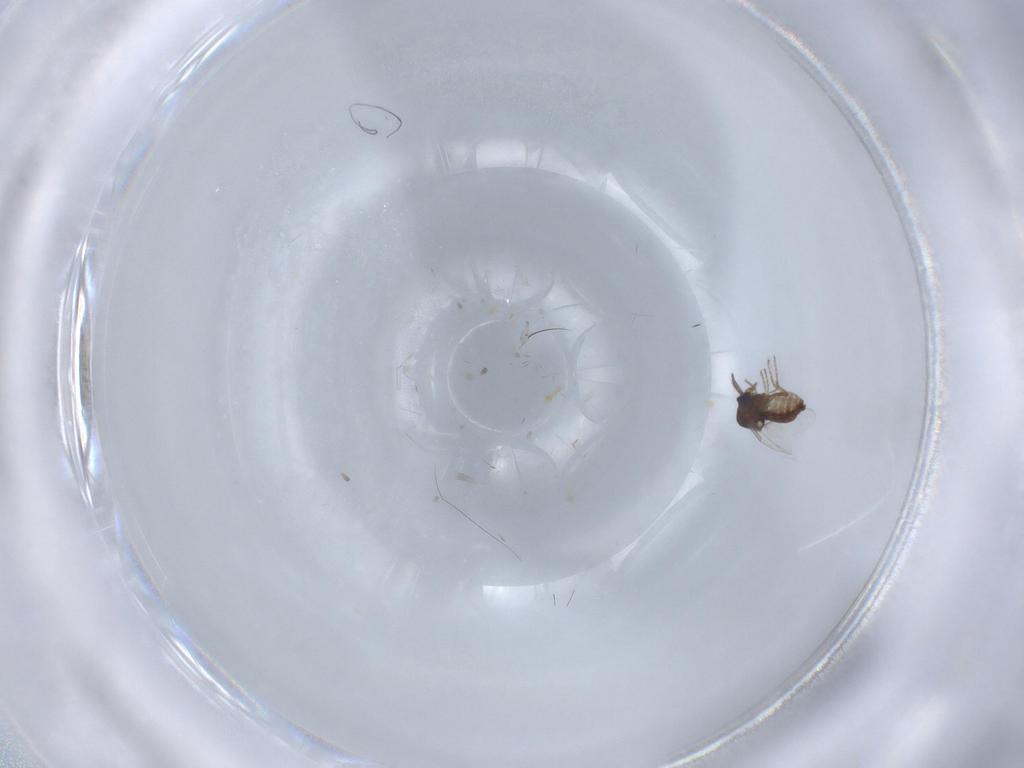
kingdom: Animalia
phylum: Arthropoda
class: Insecta
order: Diptera
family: Ceratopogonidae
